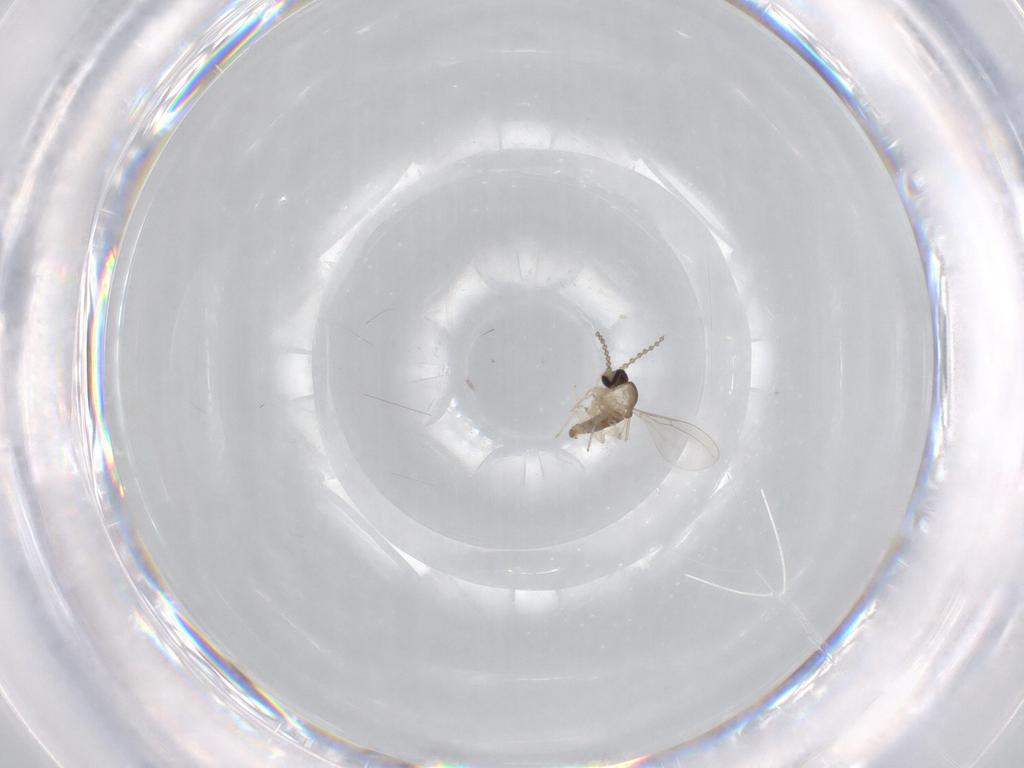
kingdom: Animalia
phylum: Arthropoda
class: Insecta
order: Diptera
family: Cecidomyiidae
